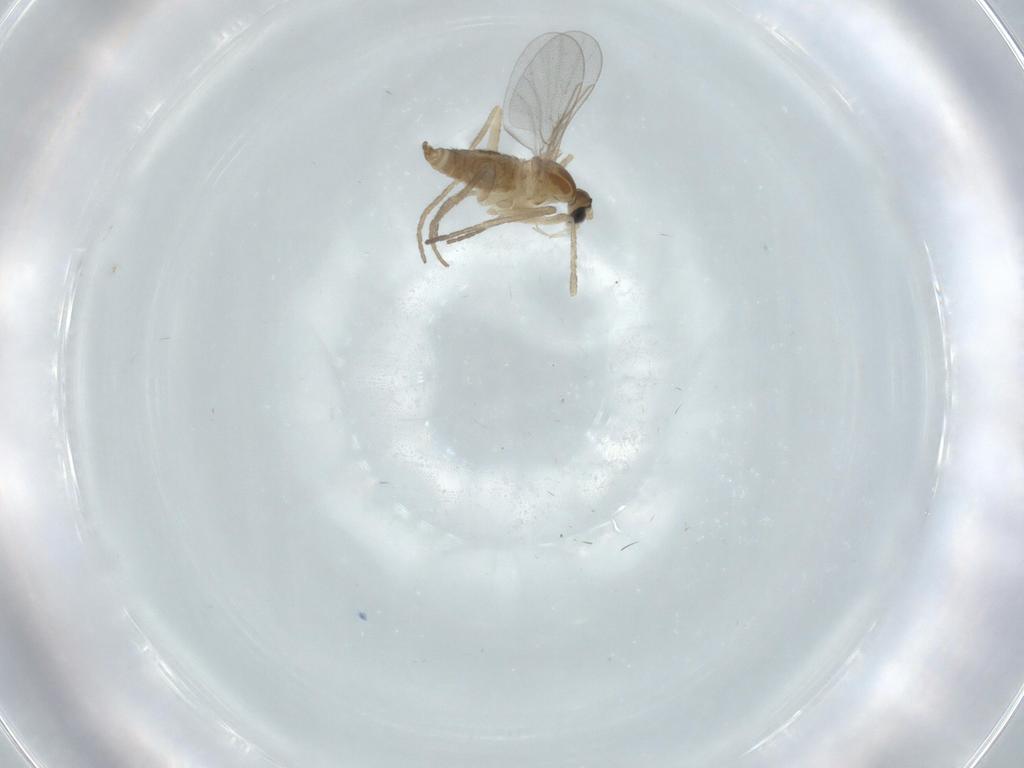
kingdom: Animalia
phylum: Arthropoda
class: Insecta
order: Diptera
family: Cecidomyiidae
